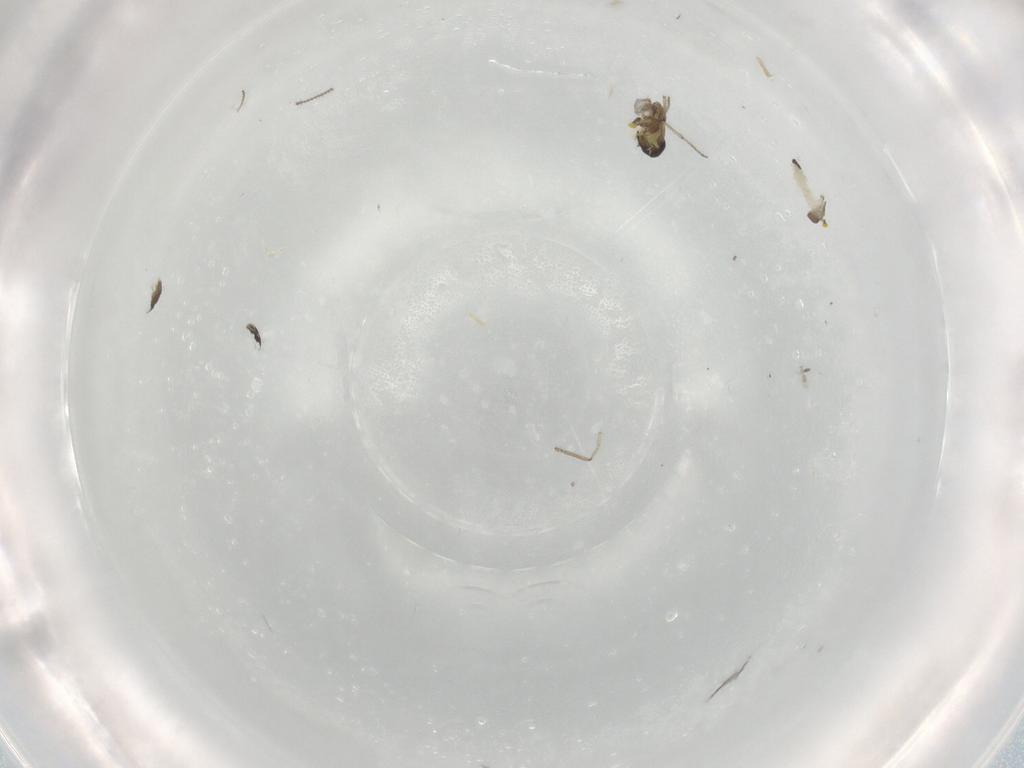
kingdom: Animalia
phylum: Arthropoda
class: Insecta
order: Diptera
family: Ceratopogonidae
